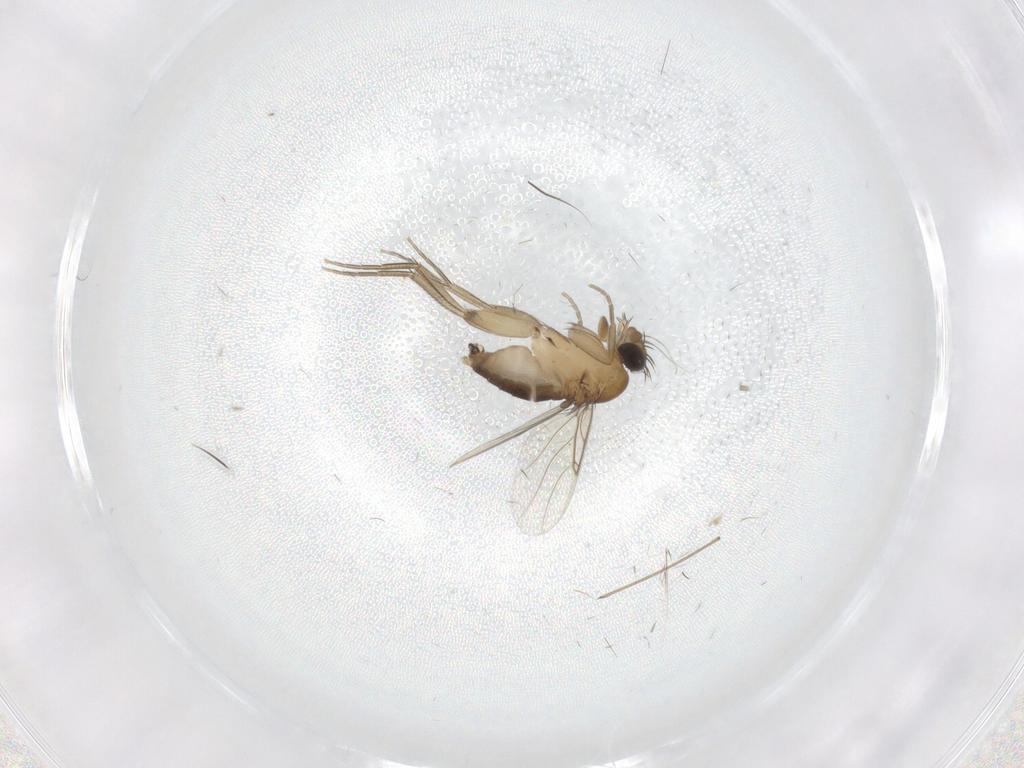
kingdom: Animalia
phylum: Arthropoda
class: Insecta
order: Diptera
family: Phoridae
